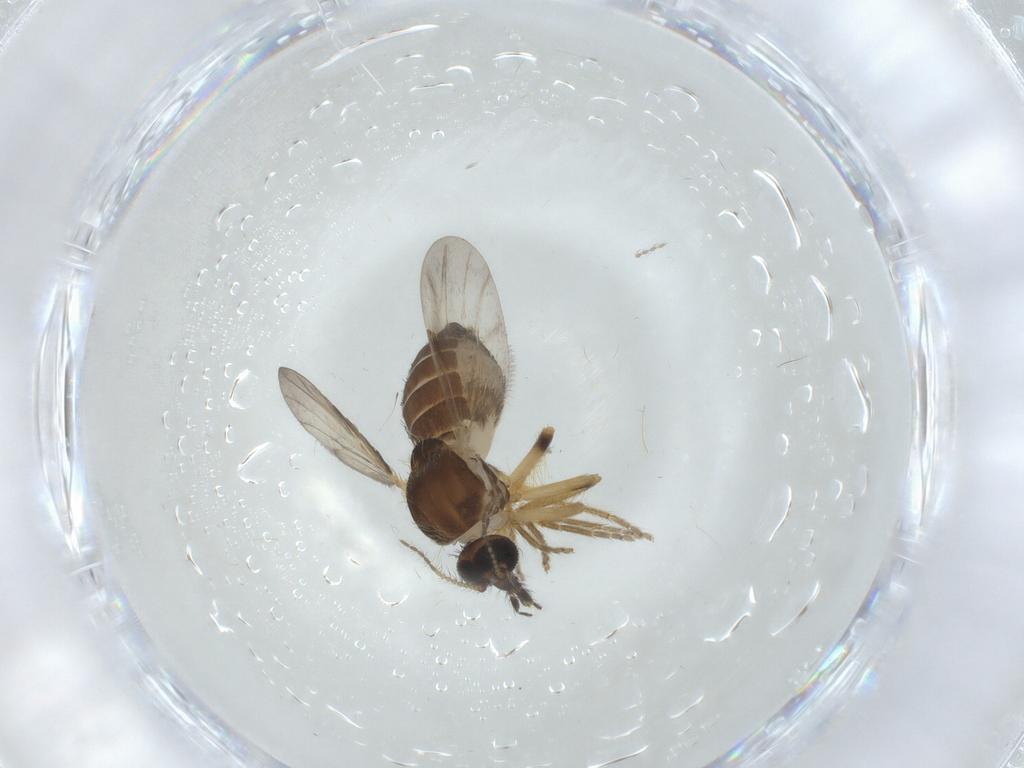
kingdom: Animalia
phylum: Arthropoda
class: Insecta
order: Diptera
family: Ceratopogonidae
